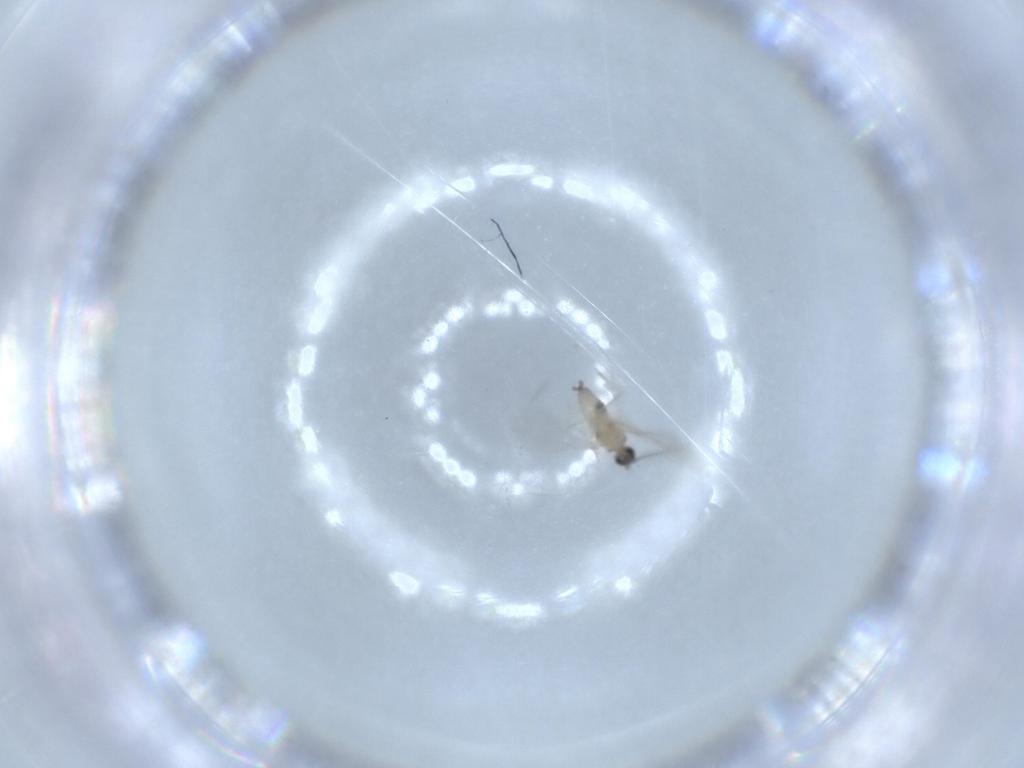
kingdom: Animalia
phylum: Arthropoda
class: Insecta
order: Diptera
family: Cecidomyiidae
